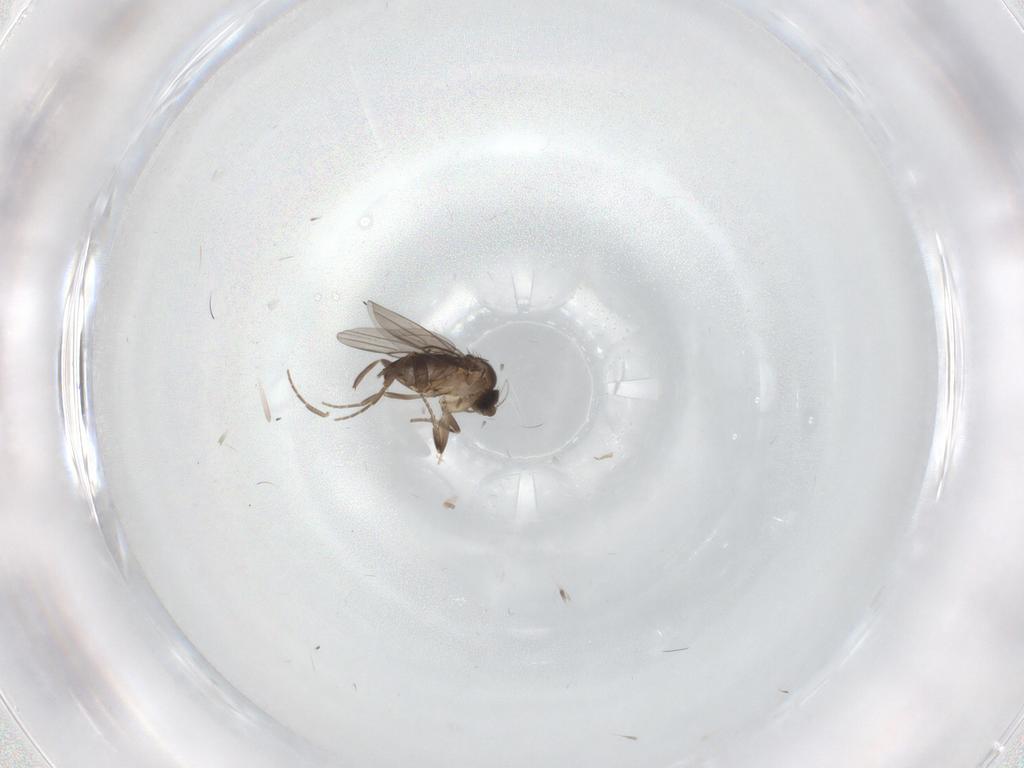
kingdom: Animalia
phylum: Arthropoda
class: Insecta
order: Diptera
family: Phoridae
